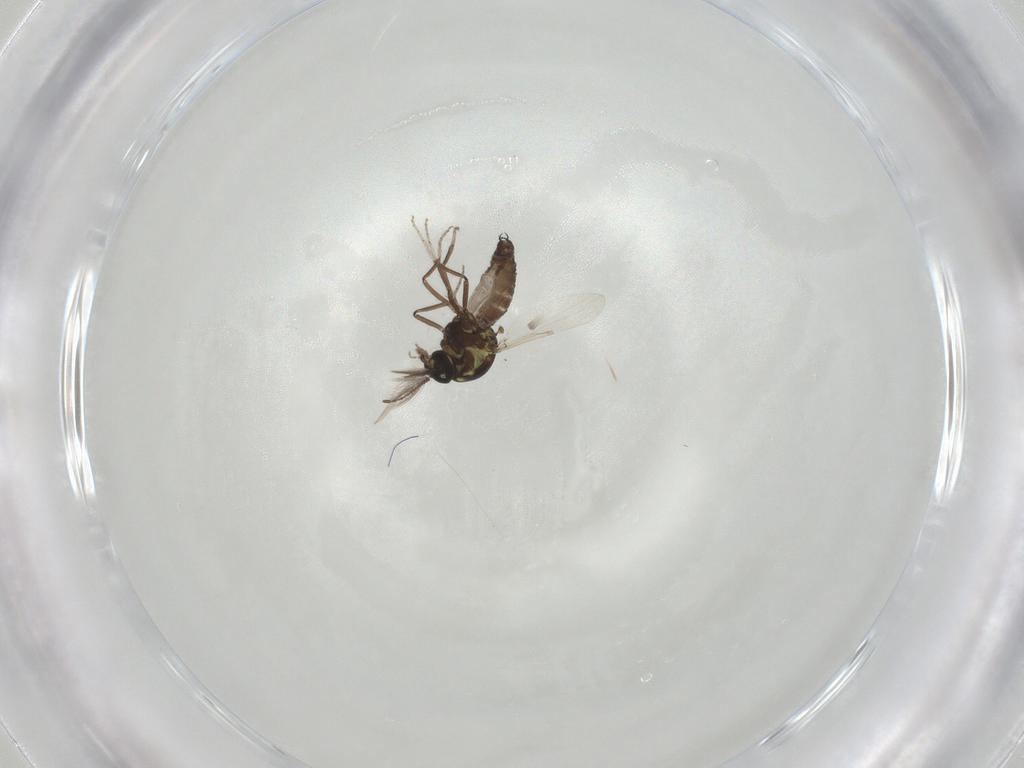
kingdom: Animalia
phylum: Arthropoda
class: Insecta
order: Diptera
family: Ceratopogonidae
